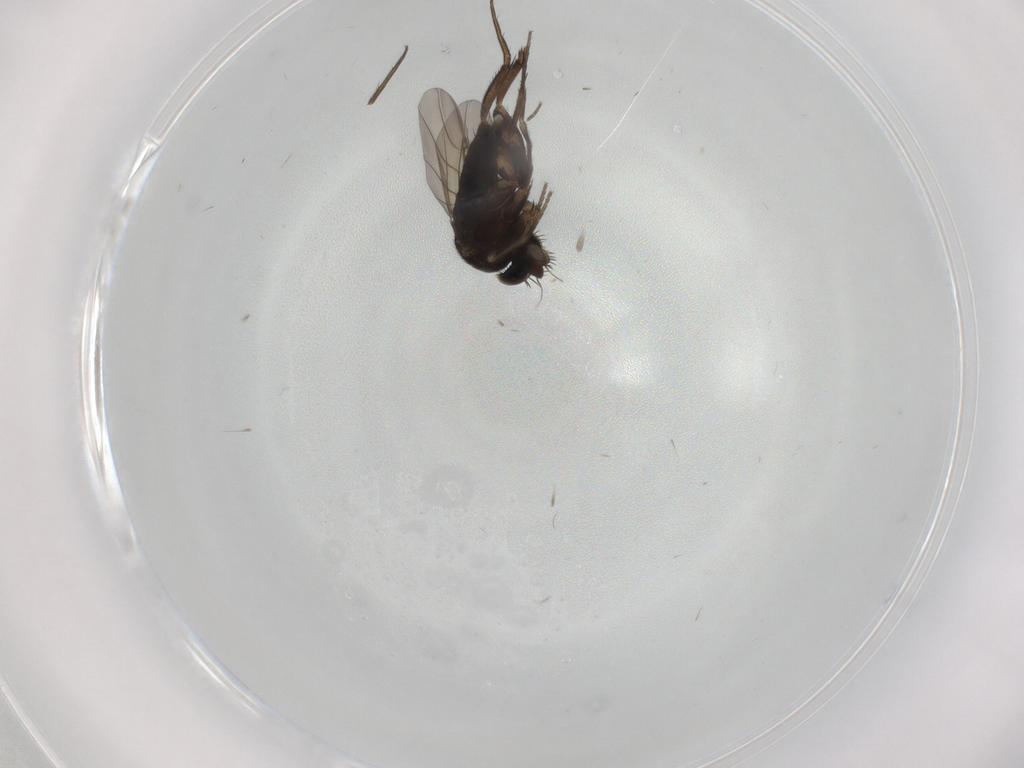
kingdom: Animalia
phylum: Arthropoda
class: Insecta
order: Diptera
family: Phoridae
